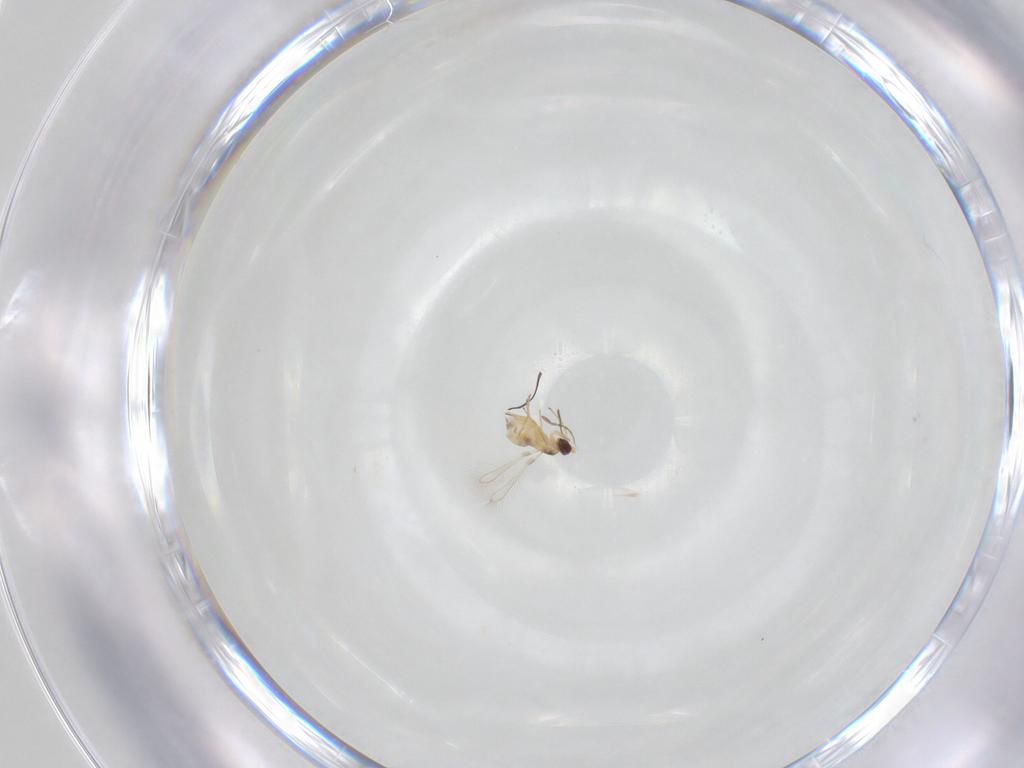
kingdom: Animalia
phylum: Arthropoda
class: Insecta
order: Hymenoptera
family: Mymaridae
